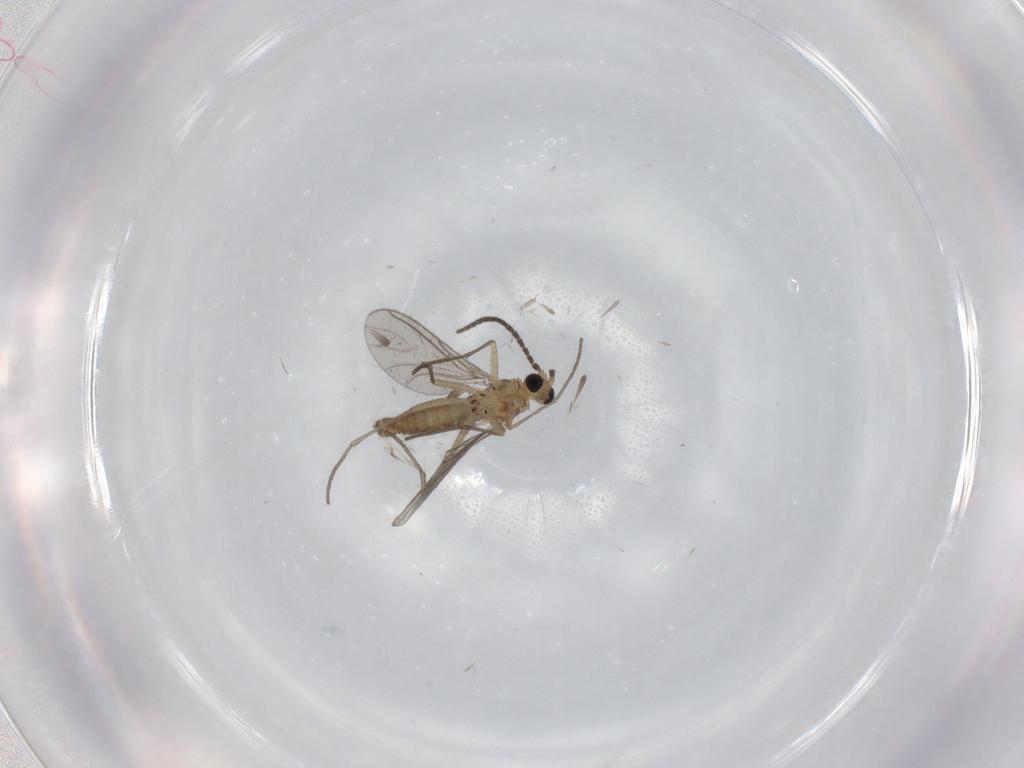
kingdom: Animalia
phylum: Arthropoda
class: Insecta
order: Diptera
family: Sciaridae
